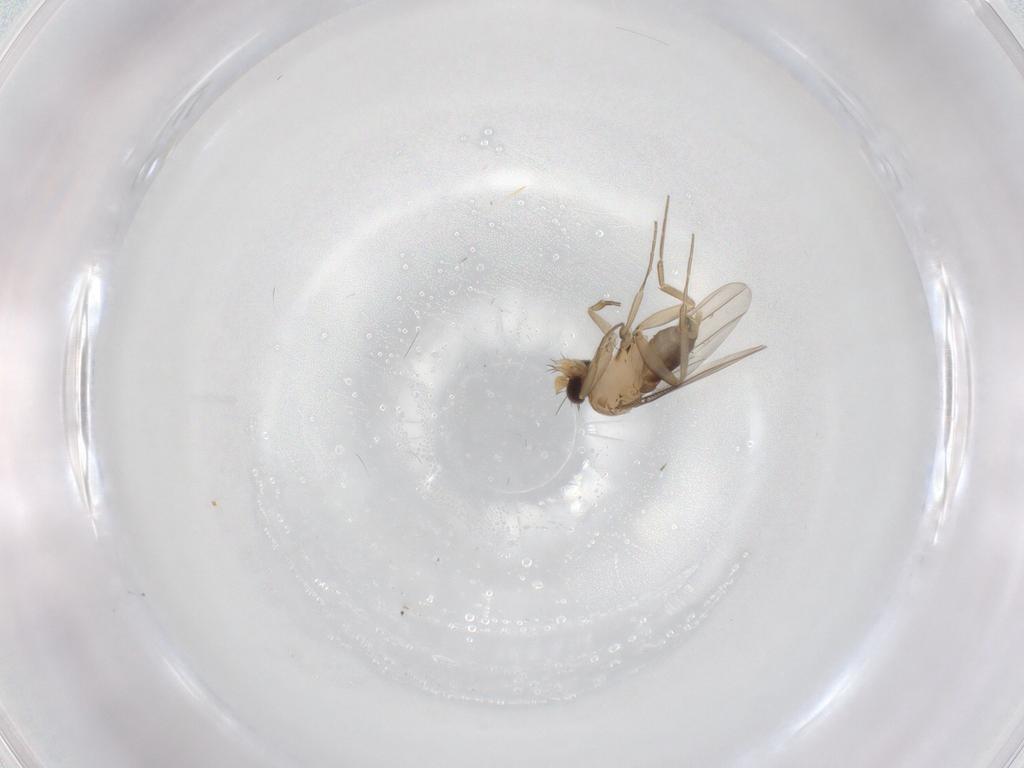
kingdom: Animalia
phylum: Arthropoda
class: Insecta
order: Diptera
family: Phoridae
